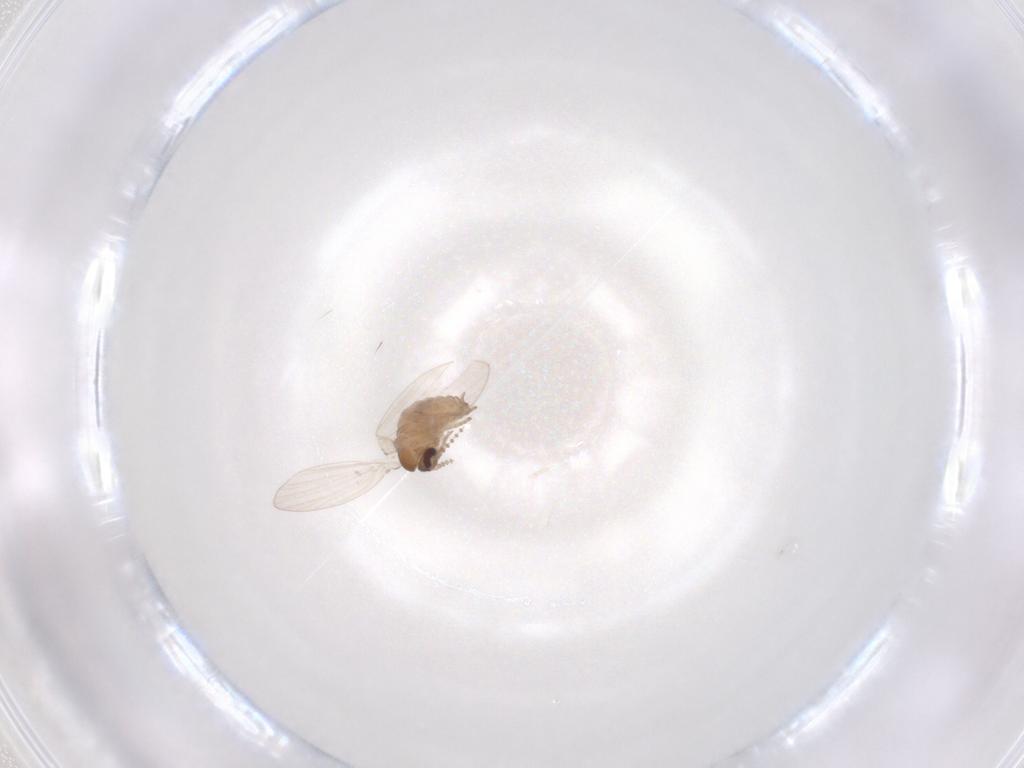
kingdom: Animalia
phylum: Arthropoda
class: Insecta
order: Diptera
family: Psychodidae
